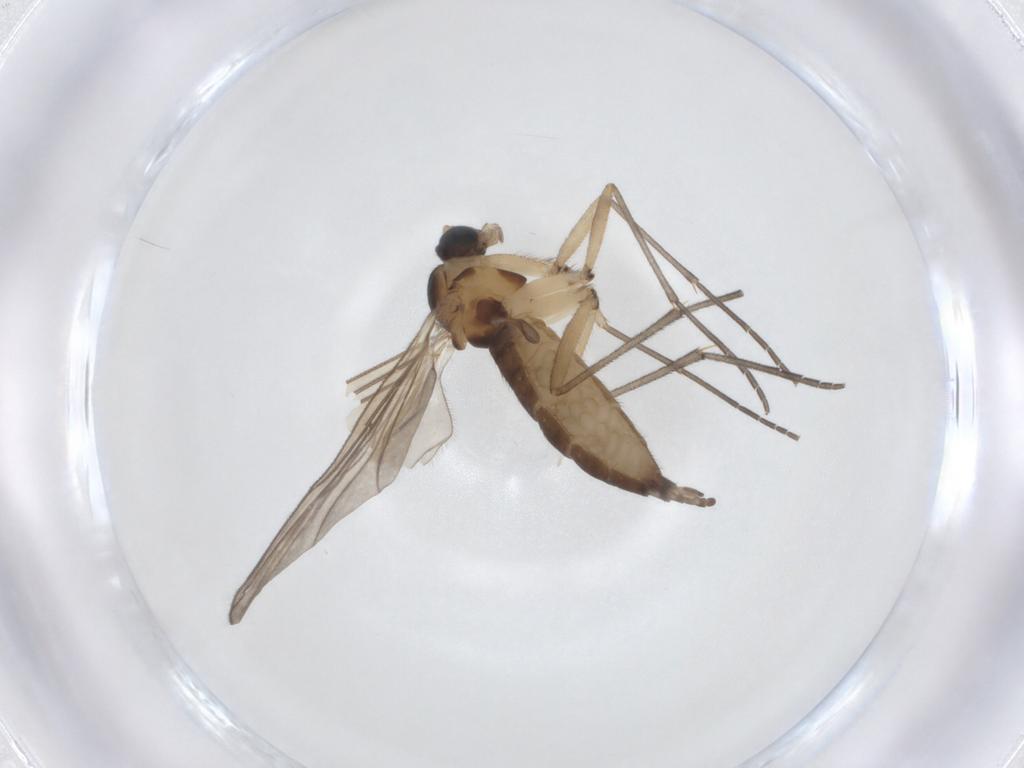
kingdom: Animalia
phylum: Arthropoda
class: Insecta
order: Diptera
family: Sciaridae
